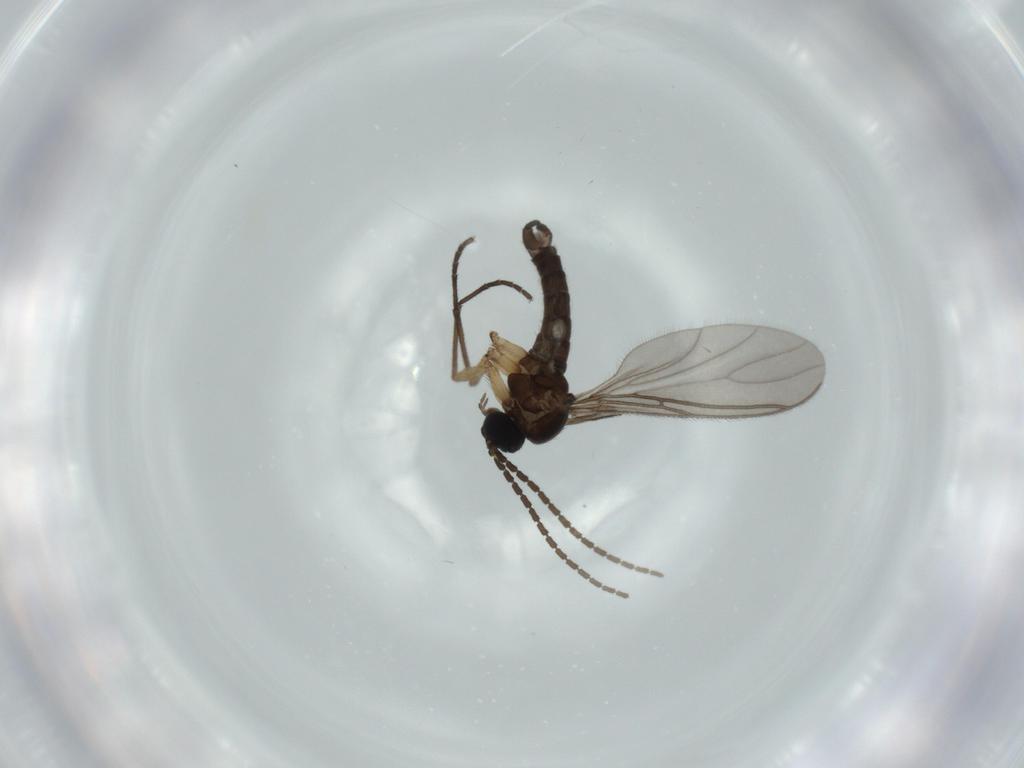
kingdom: Animalia
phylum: Arthropoda
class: Insecta
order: Diptera
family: Sciaridae
